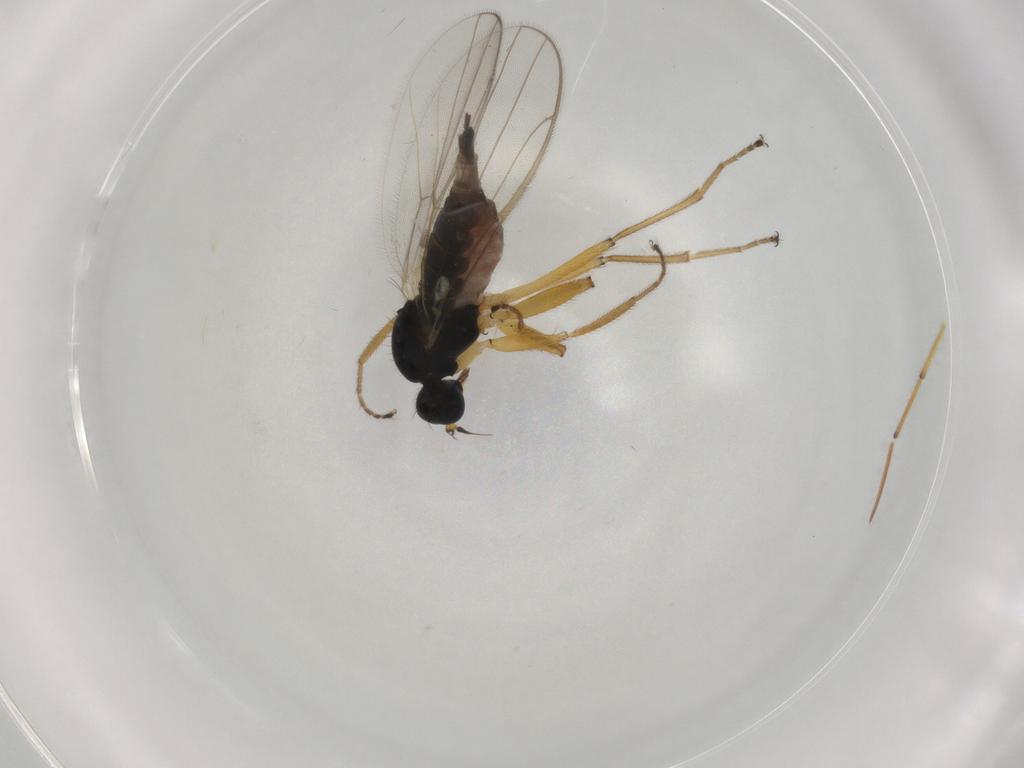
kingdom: Animalia
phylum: Arthropoda
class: Insecta
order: Diptera
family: Hybotidae
